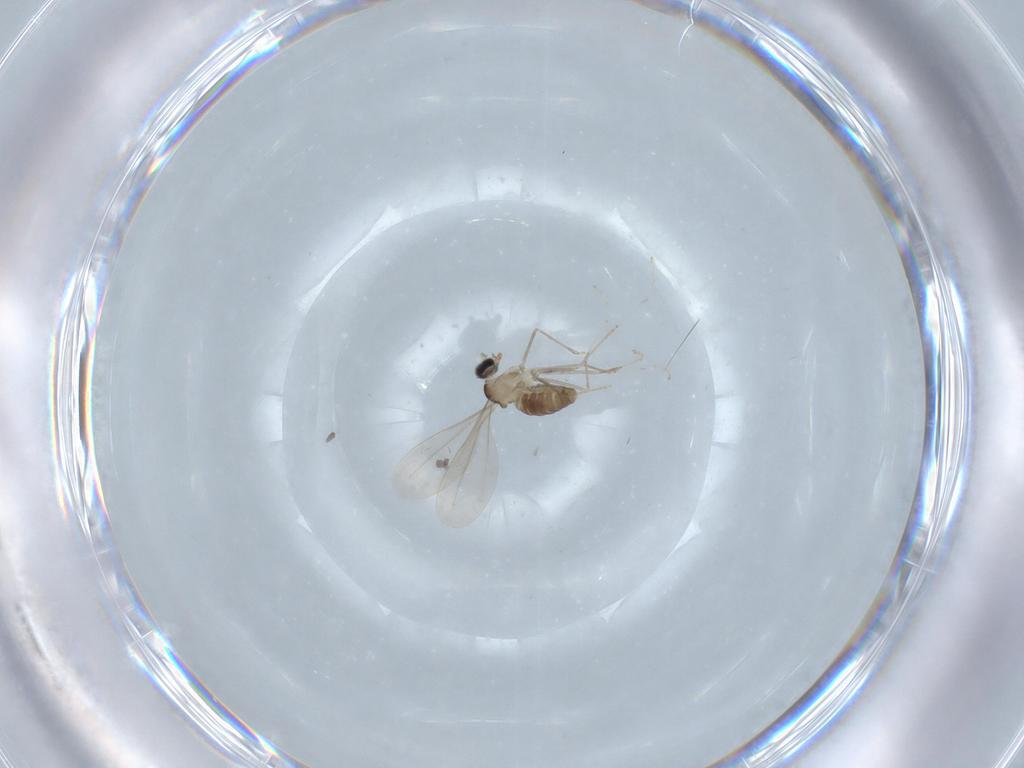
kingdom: Animalia
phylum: Arthropoda
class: Insecta
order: Diptera
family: Cecidomyiidae
